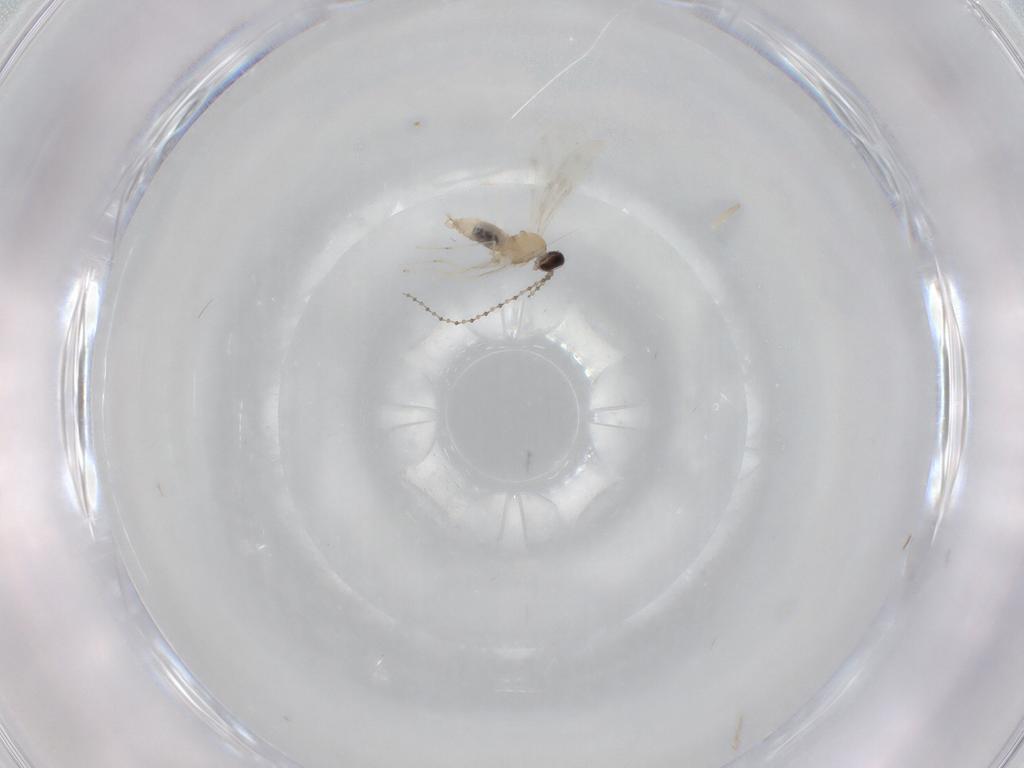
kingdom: Animalia
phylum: Arthropoda
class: Insecta
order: Diptera
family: Cecidomyiidae
